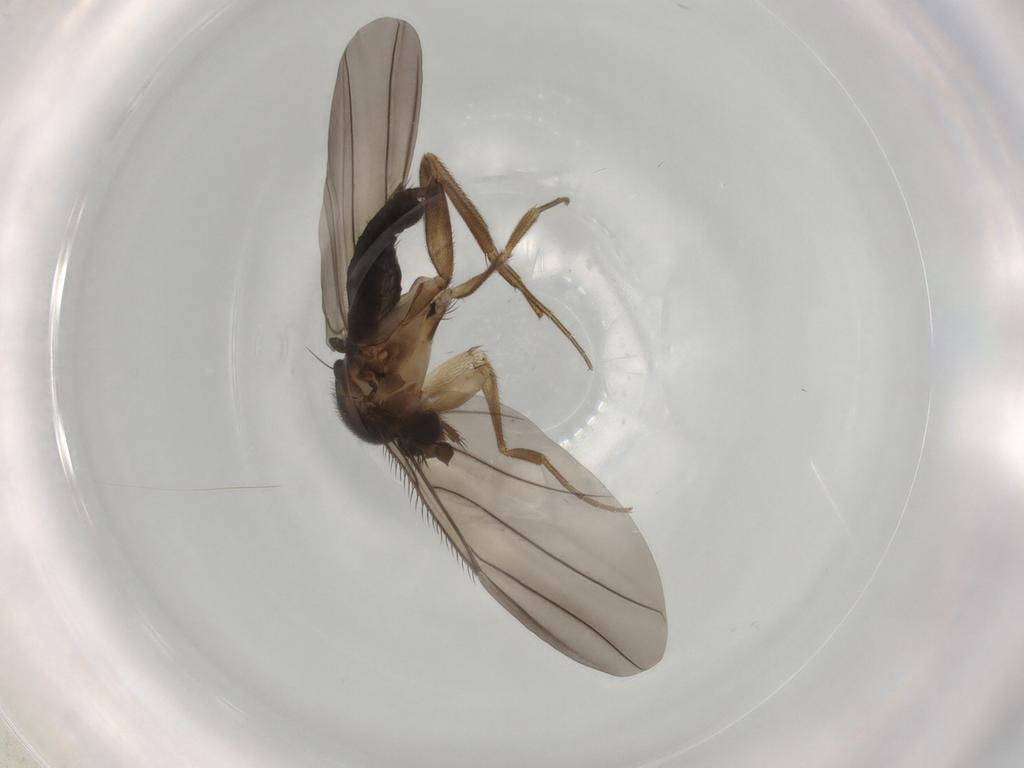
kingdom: Animalia
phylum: Arthropoda
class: Insecta
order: Diptera
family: Phoridae
